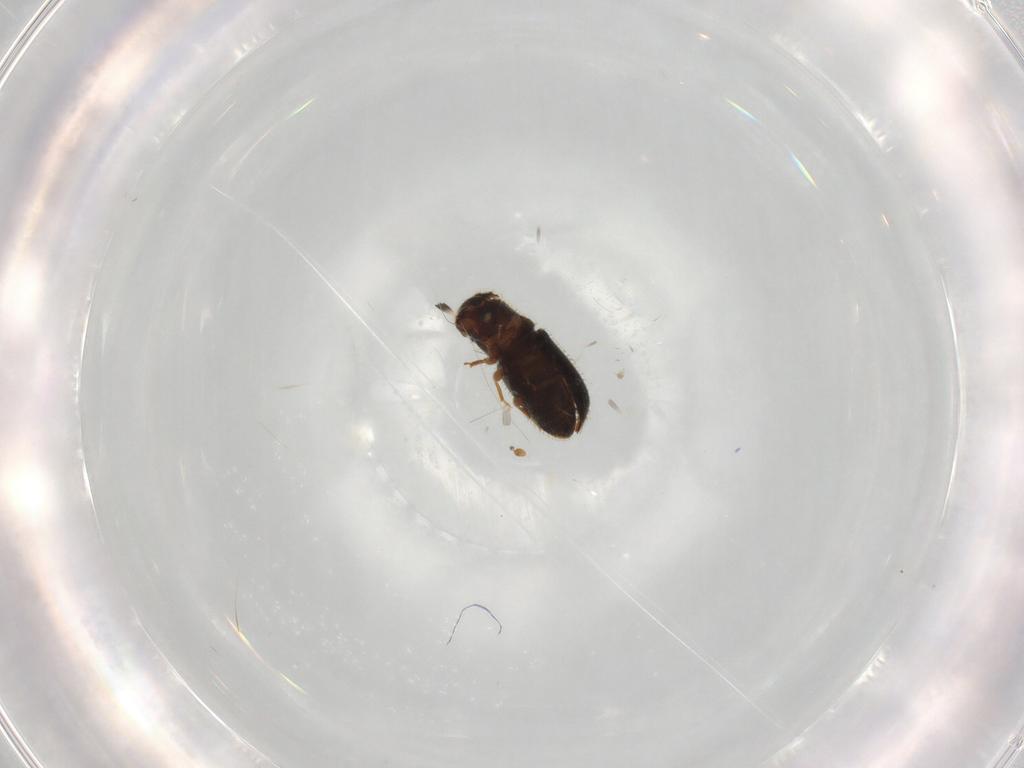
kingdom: Animalia
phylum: Arthropoda
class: Insecta
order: Coleoptera
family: Curculionidae
